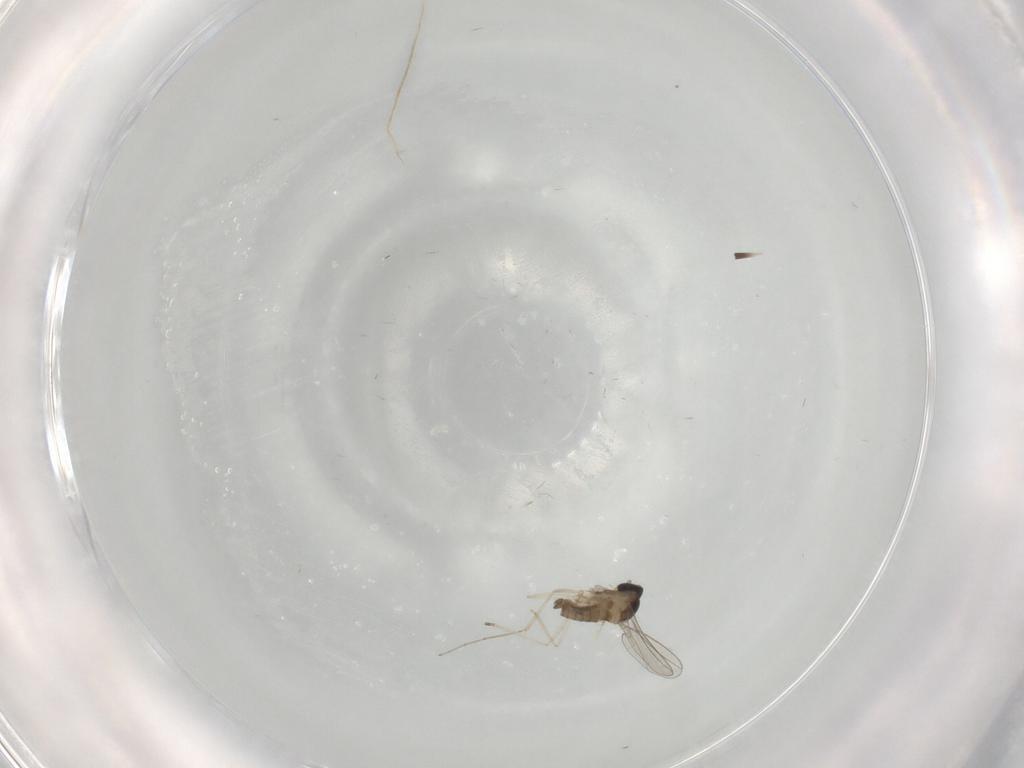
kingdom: Animalia
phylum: Arthropoda
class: Insecta
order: Diptera
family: Cecidomyiidae
